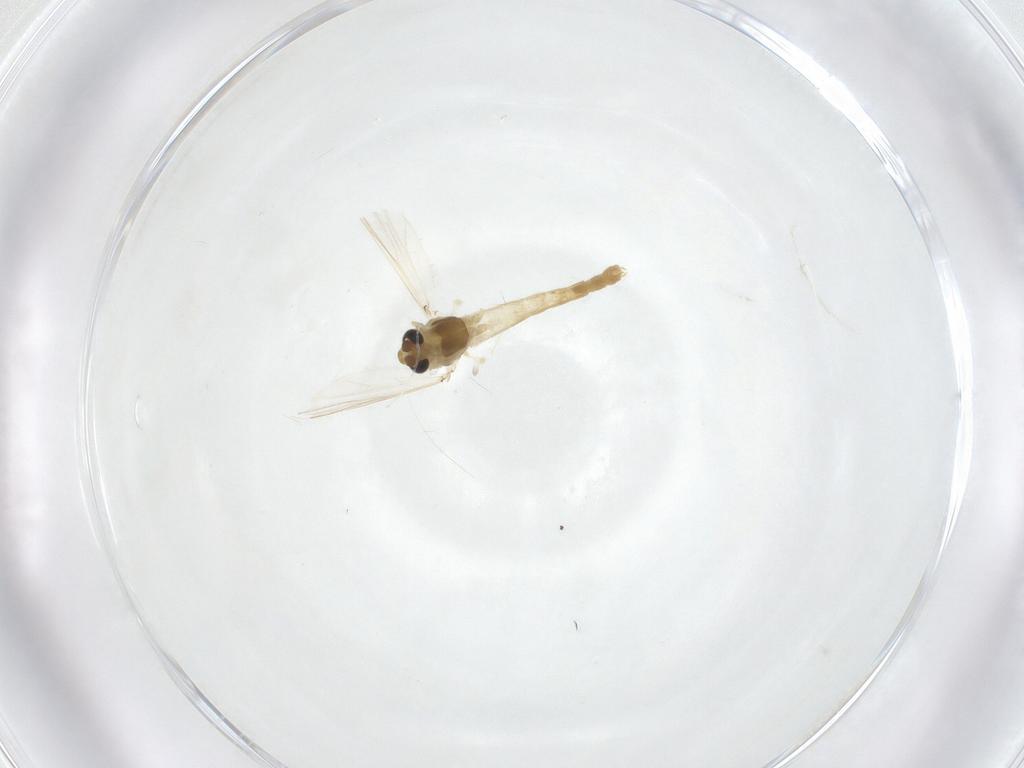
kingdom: Animalia
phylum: Arthropoda
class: Insecta
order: Diptera
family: Chironomidae
